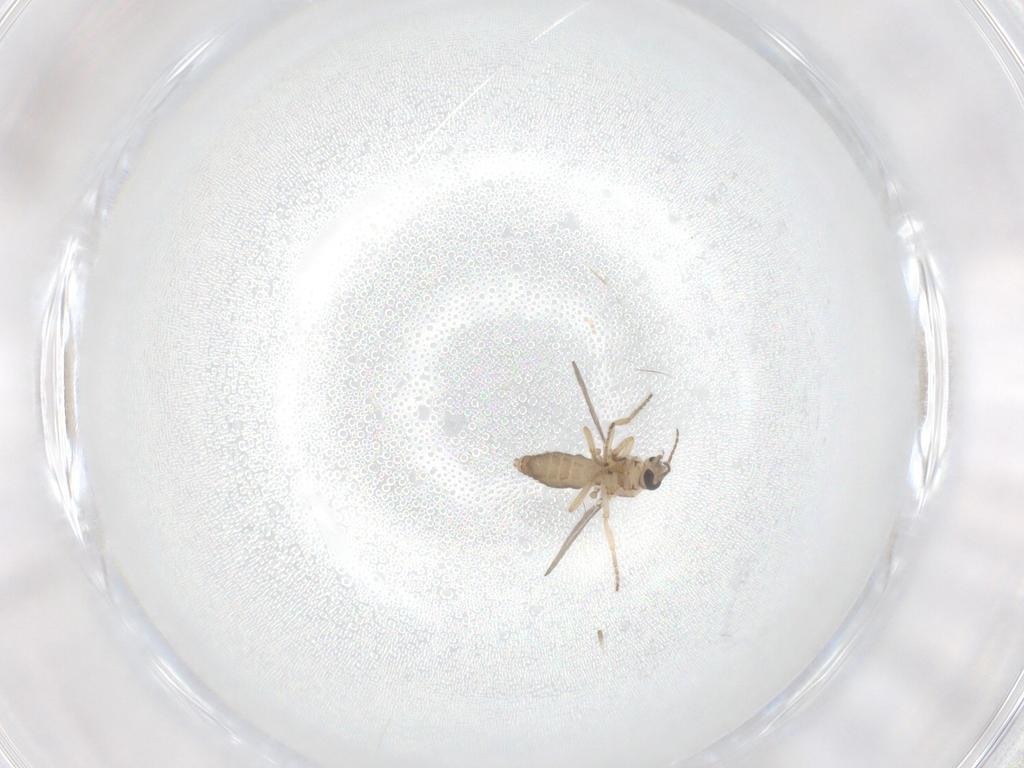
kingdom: Animalia
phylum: Arthropoda
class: Insecta
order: Diptera
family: Ceratopogonidae
